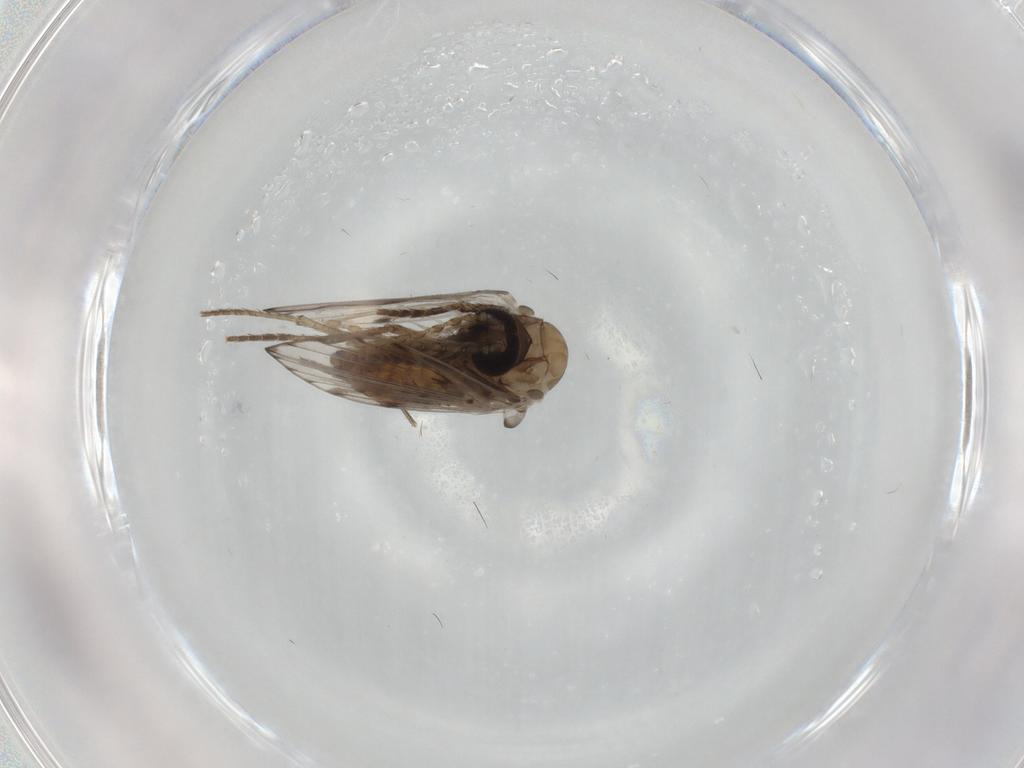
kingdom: Animalia
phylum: Arthropoda
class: Insecta
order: Diptera
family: Psychodidae
